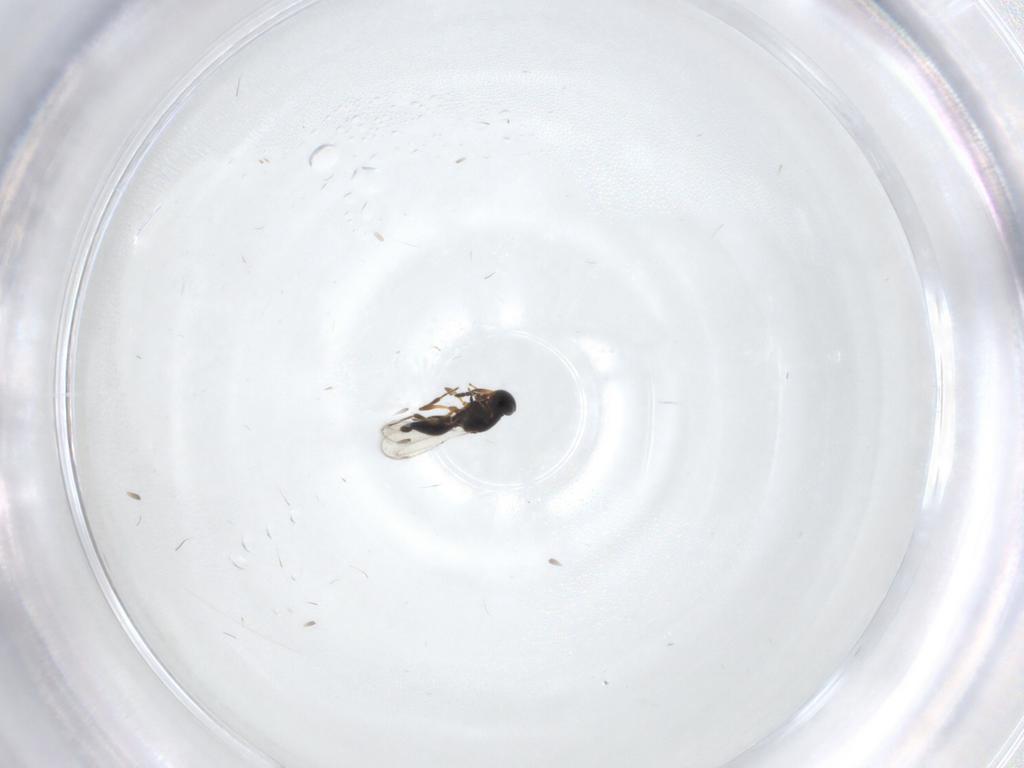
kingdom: Animalia
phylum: Arthropoda
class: Insecta
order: Hymenoptera
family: Platygastridae
